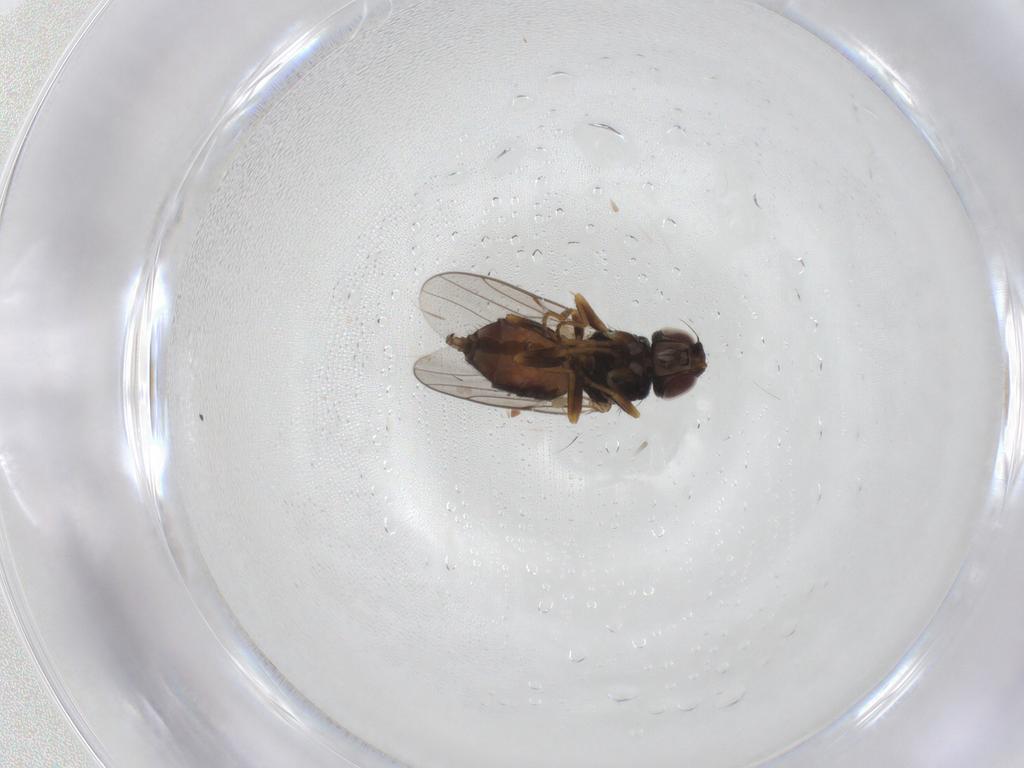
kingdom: Animalia
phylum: Arthropoda
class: Insecta
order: Diptera
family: Chloropidae
